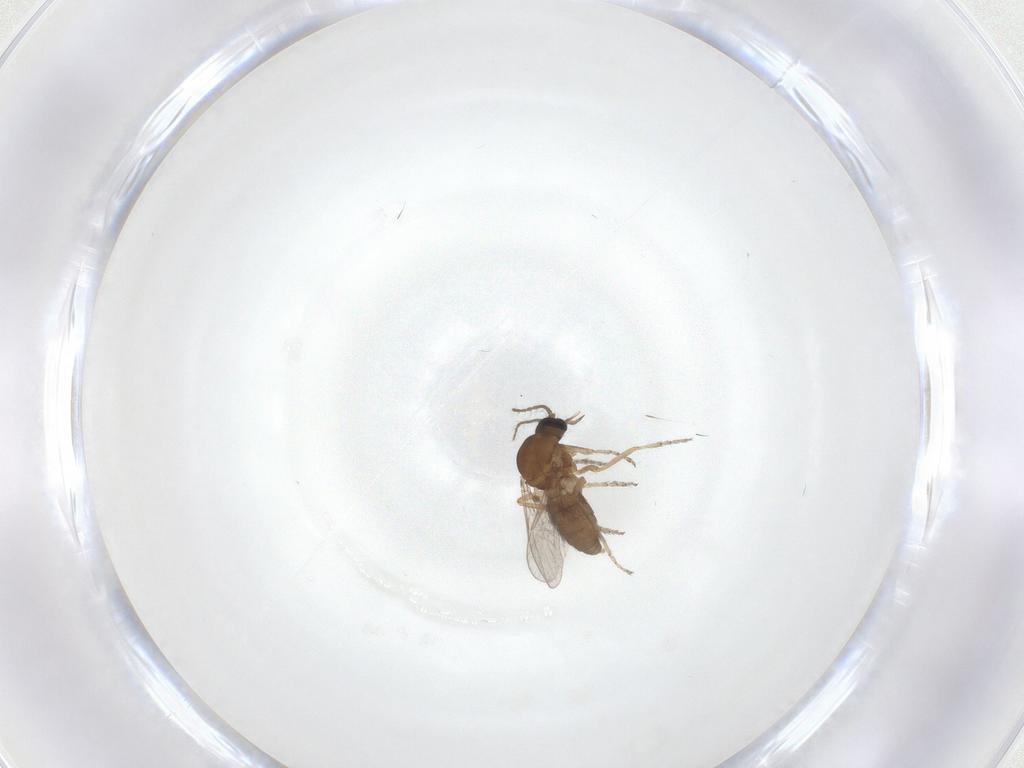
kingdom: Animalia
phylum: Arthropoda
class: Insecta
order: Diptera
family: Ceratopogonidae
